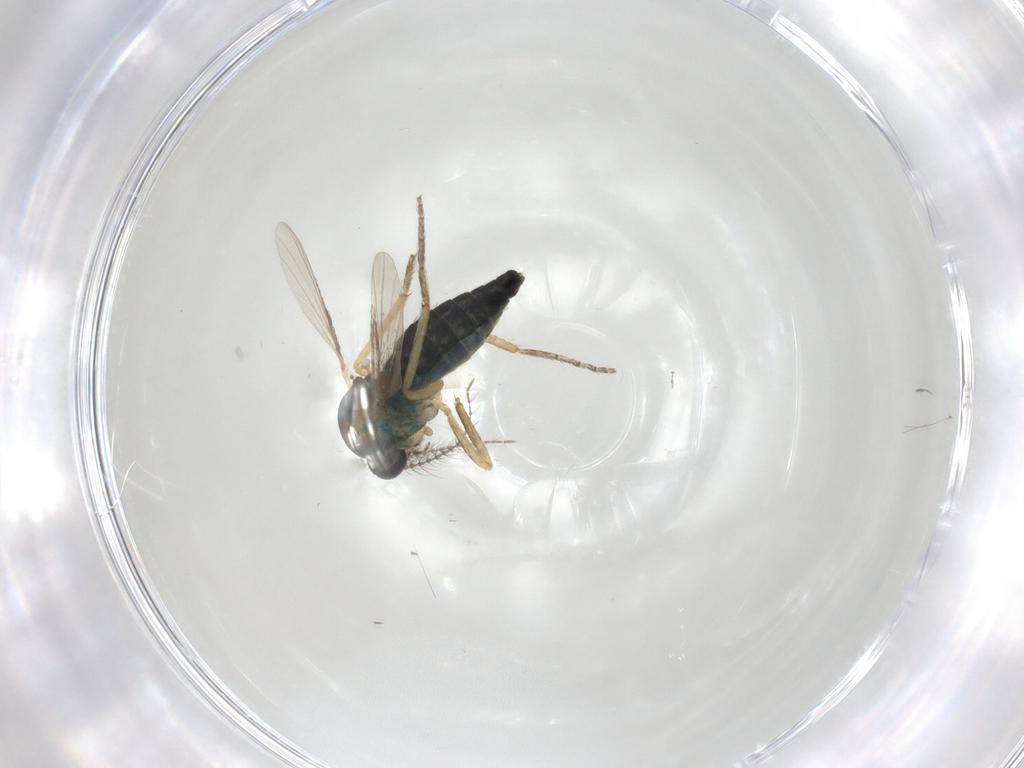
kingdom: Animalia
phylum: Arthropoda
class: Insecta
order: Diptera
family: Ceratopogonidae
